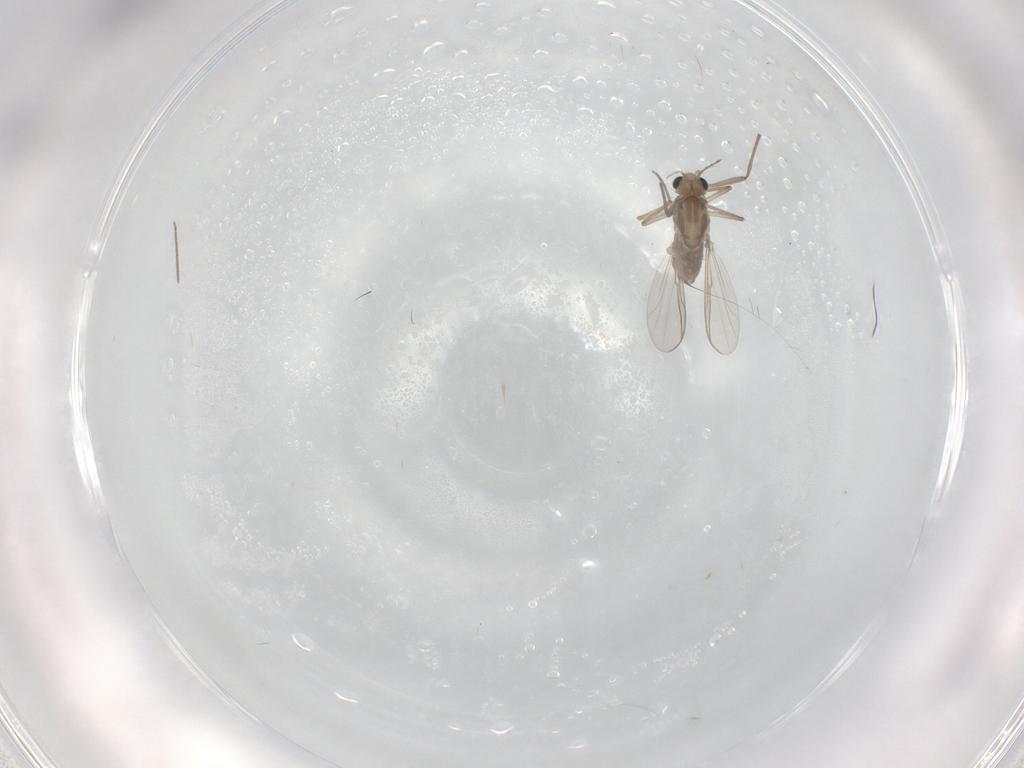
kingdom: Animalia
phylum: Arthropoda
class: Insecta
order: Diptera
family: Chironomidae
